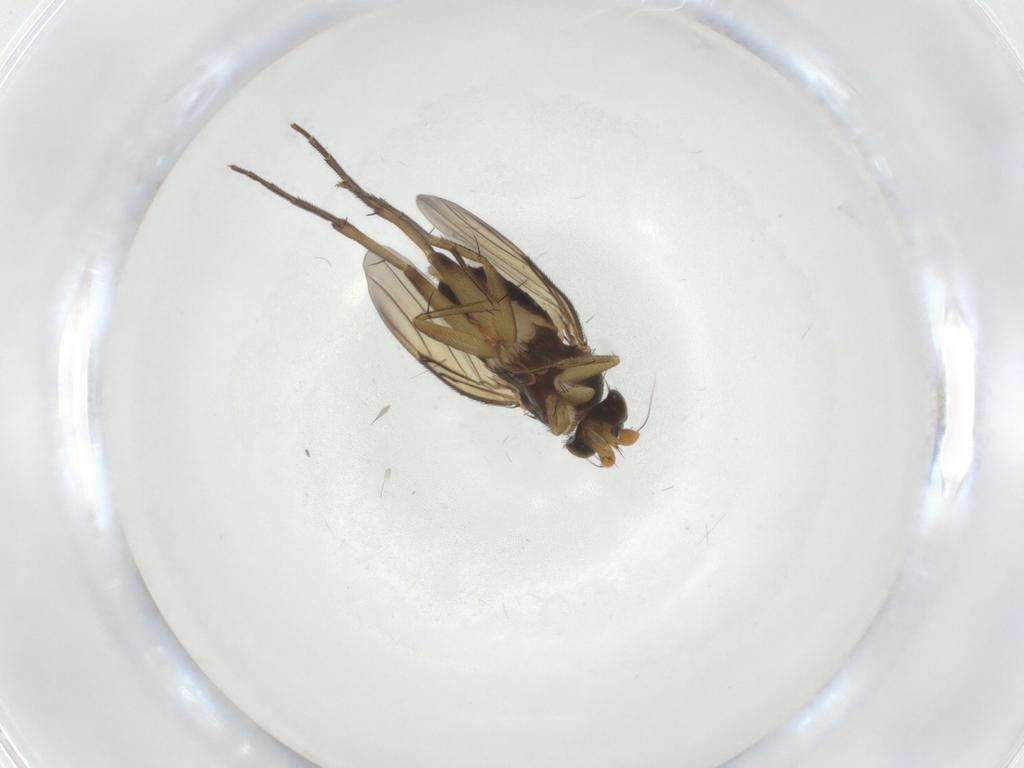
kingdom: Animalia
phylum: Arthropoda
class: Insecta
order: Diptera
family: Phoridae
